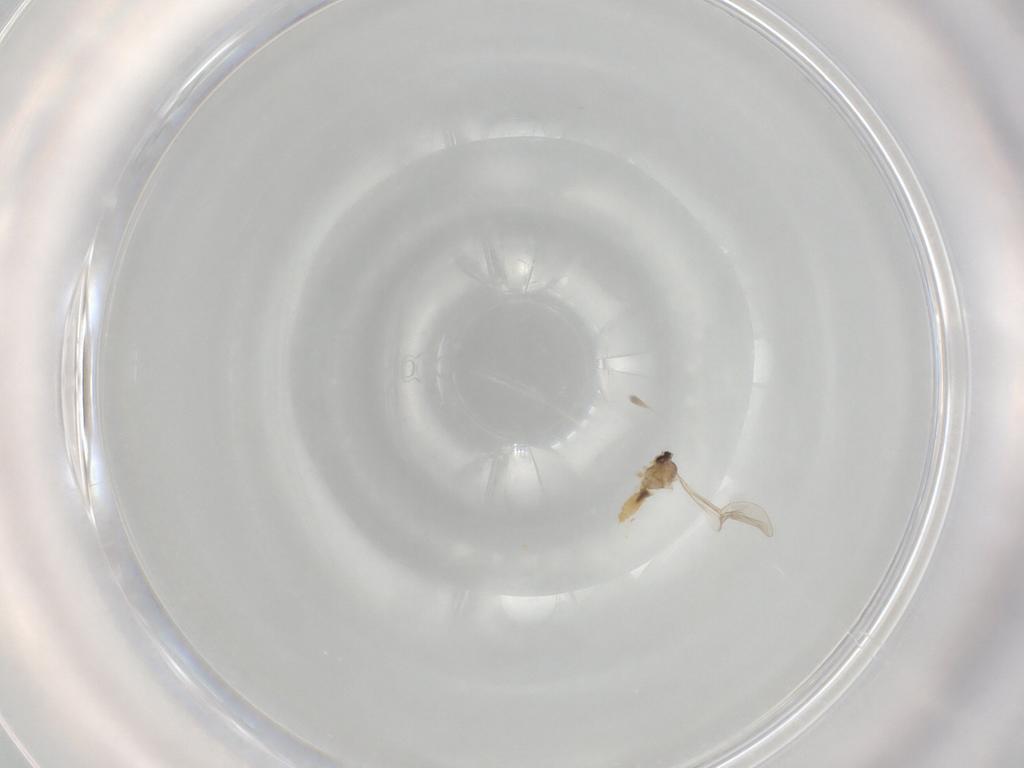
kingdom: Animalia
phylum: Arthropoda
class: Insecta
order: Diptera
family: Cecidomyiidae
